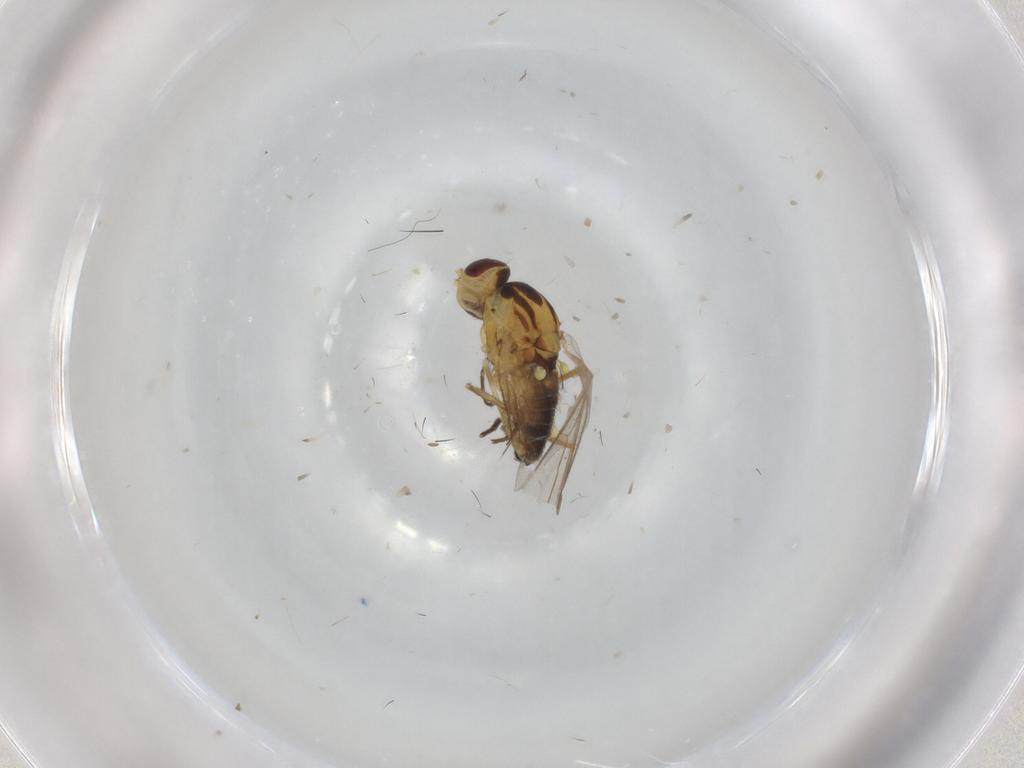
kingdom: Animalia
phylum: Arthropoda
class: Insecta
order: Diptera
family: Agromyzidae
